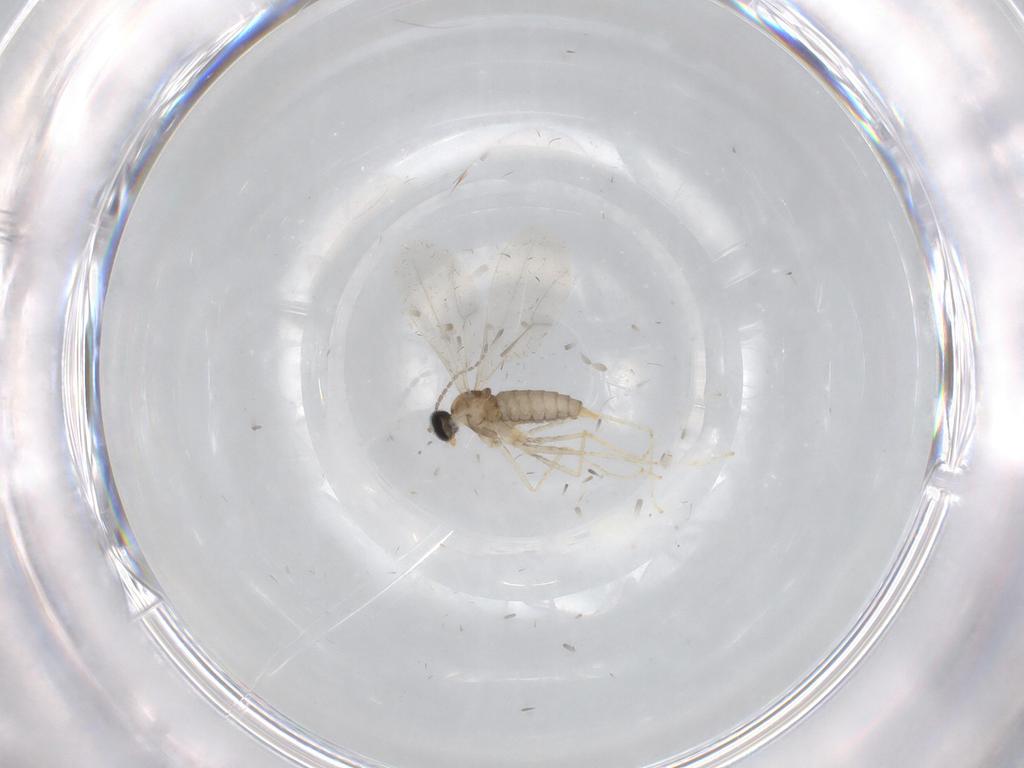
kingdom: Animalia
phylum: Arthropoda
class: Insecta
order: Diptera
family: Cecidomyiidae
